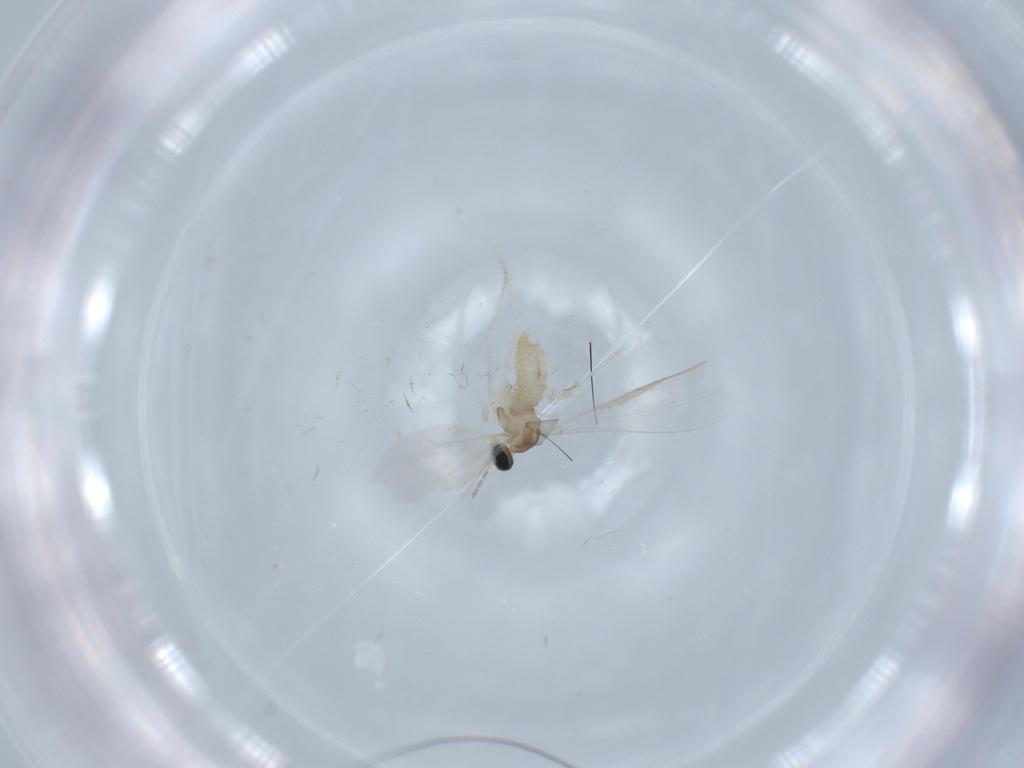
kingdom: Animalia
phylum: Arthropoda
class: Insecta
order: Diptera
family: Cecidomyiidae
